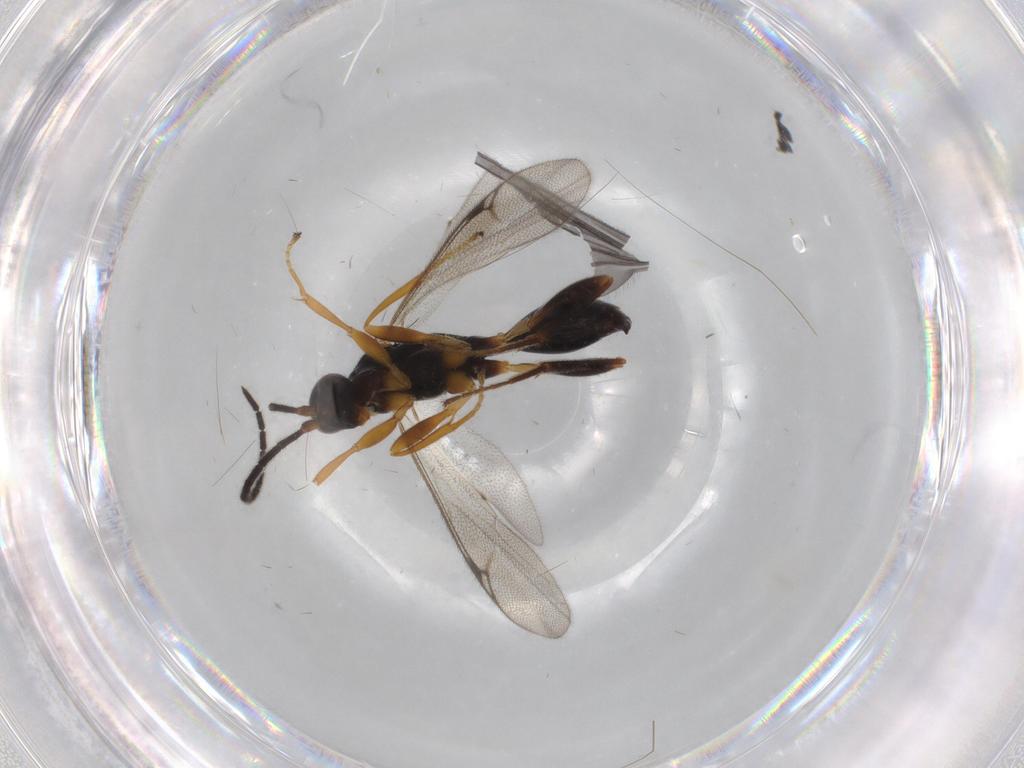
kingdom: Animalia
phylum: Arthropoda
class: Insecta
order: Hymenoptera
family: Proctotrupidae
